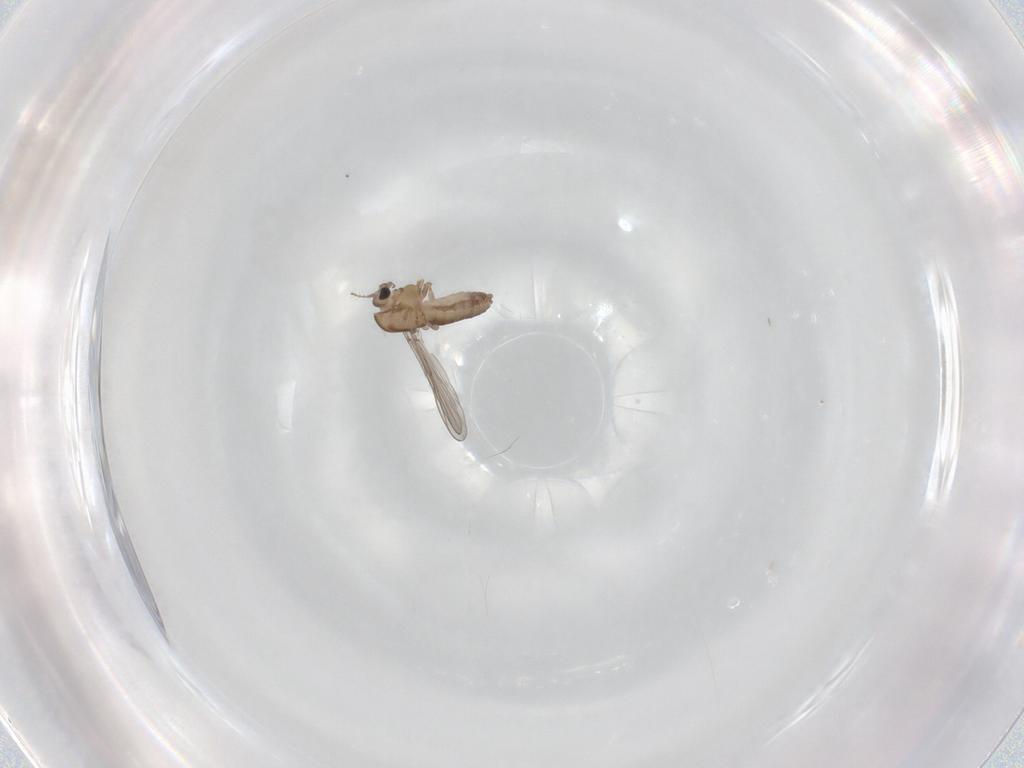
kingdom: Animalia
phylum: Arthropoda
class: Insecta
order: Diptera
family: Chironomidae
